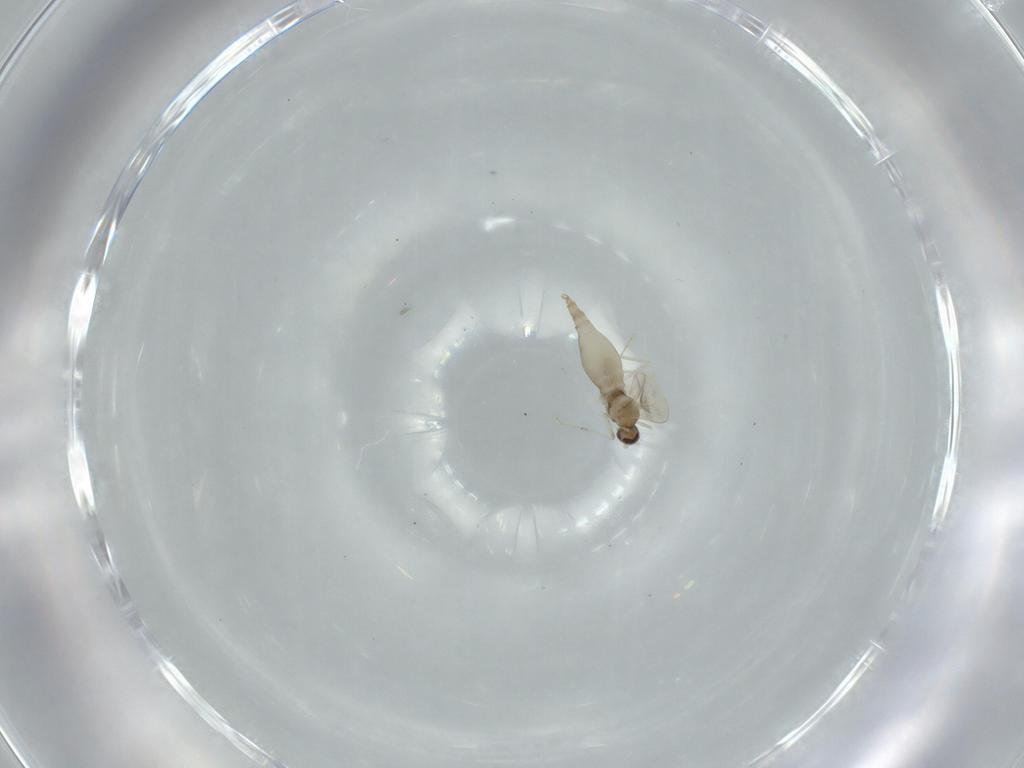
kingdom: Animalia
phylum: Arthropoda
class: Insecta
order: Diptera
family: Cecidomyiidae
